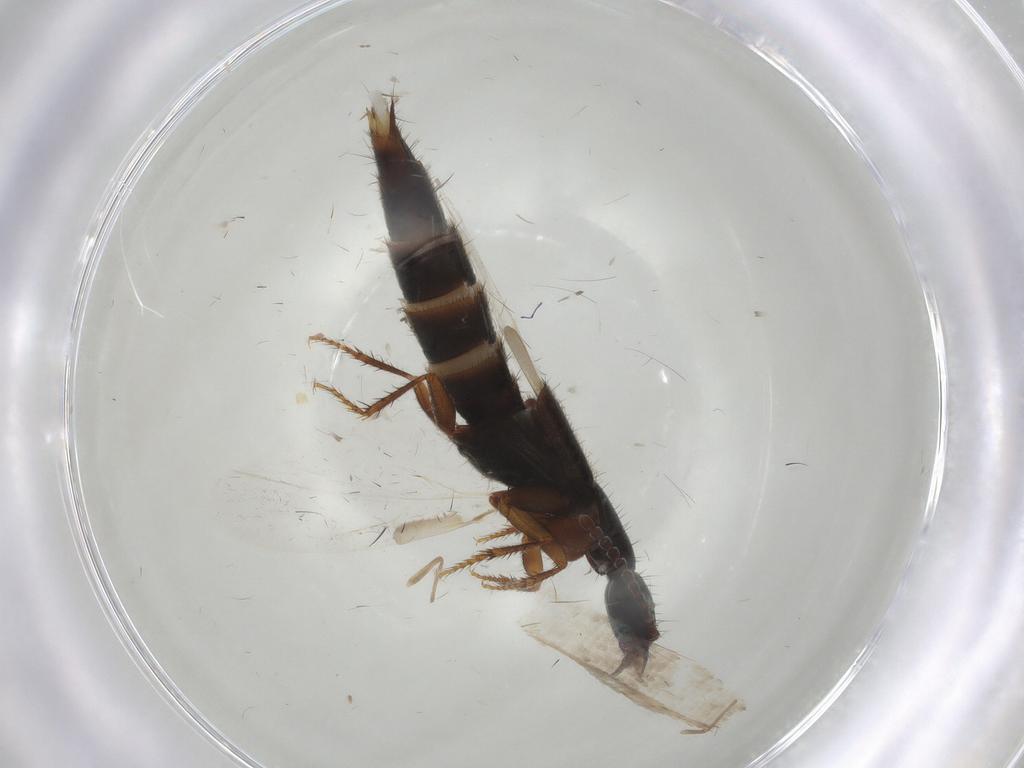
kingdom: Animalia
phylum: Arthropoda
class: Insecta
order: Coleoptera
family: Staphylinidae
